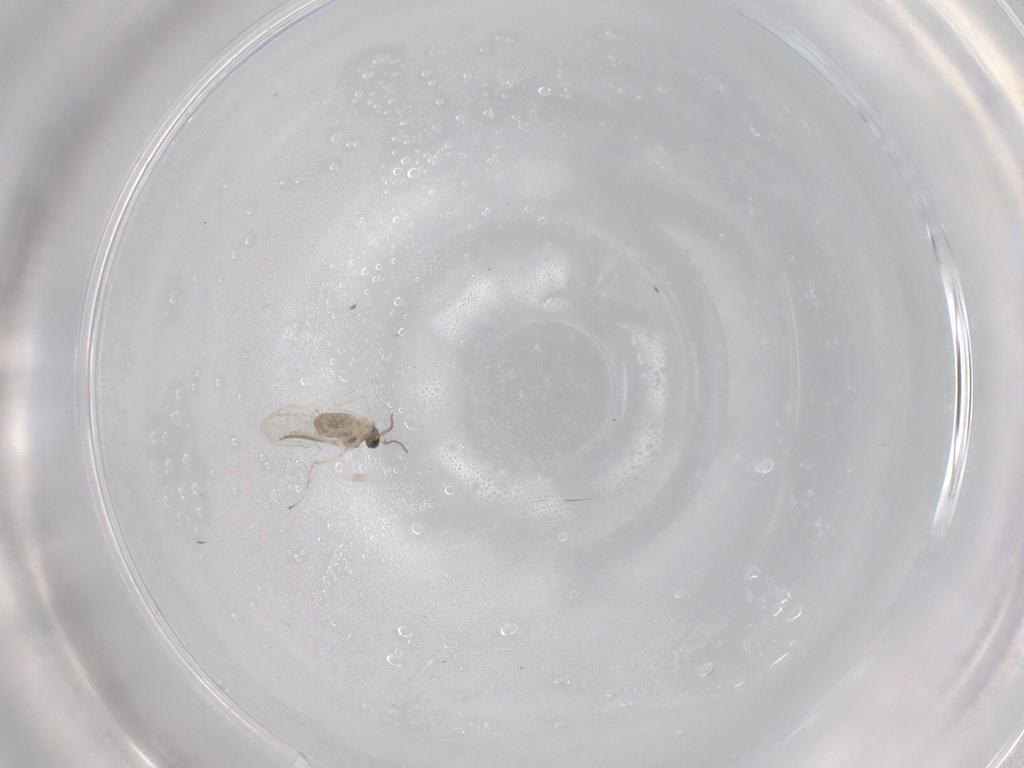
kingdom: Animalia
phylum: Arthropoda
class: Insecta
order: Diptera
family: Cecidomyiidae
